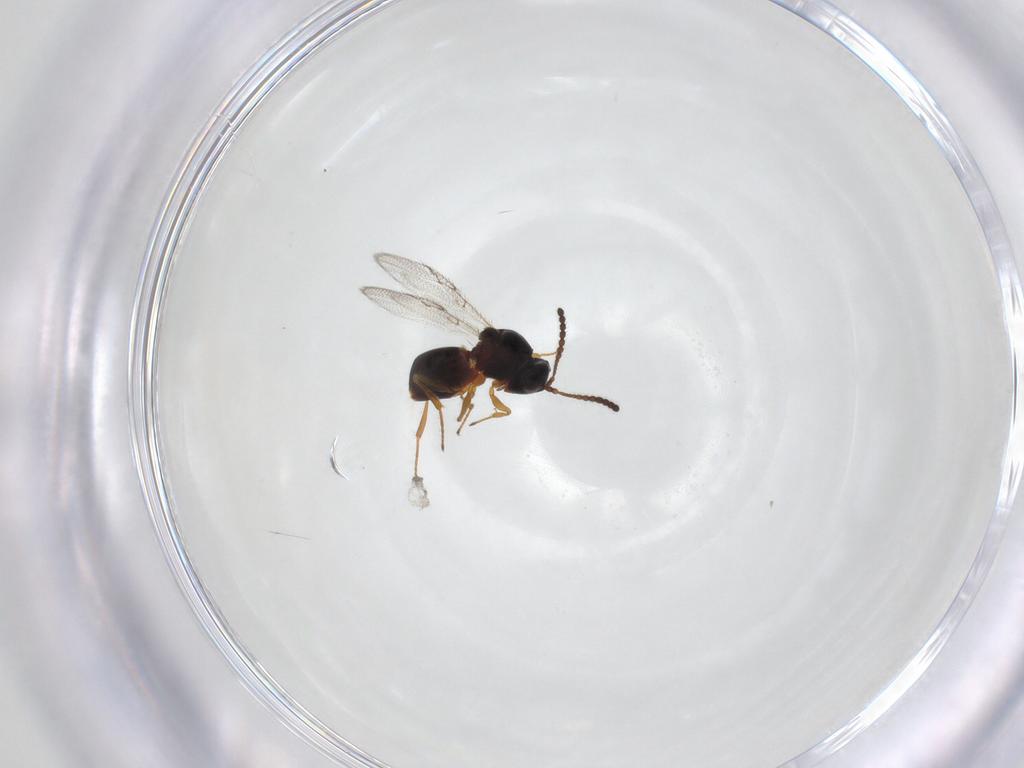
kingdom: Animalia
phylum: Arthropoda
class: Insecta
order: Hymenoptera
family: Figitidae
